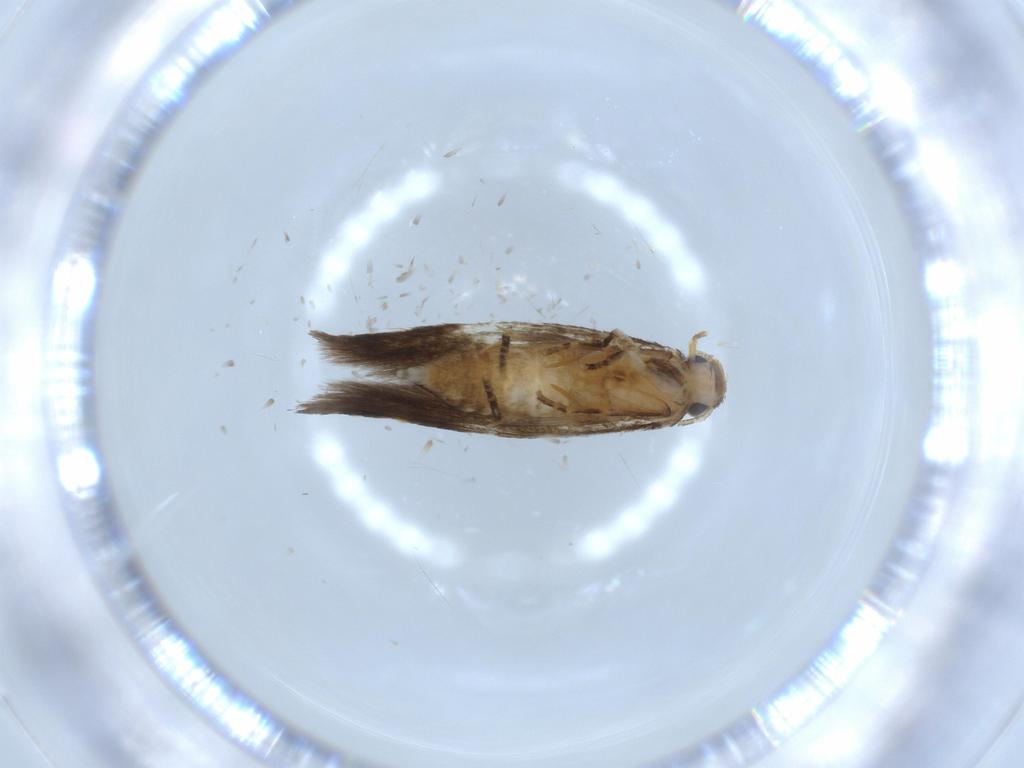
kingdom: Animalia
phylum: Arthropoda
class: Insecta
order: Lepidoptera
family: Tineidae
